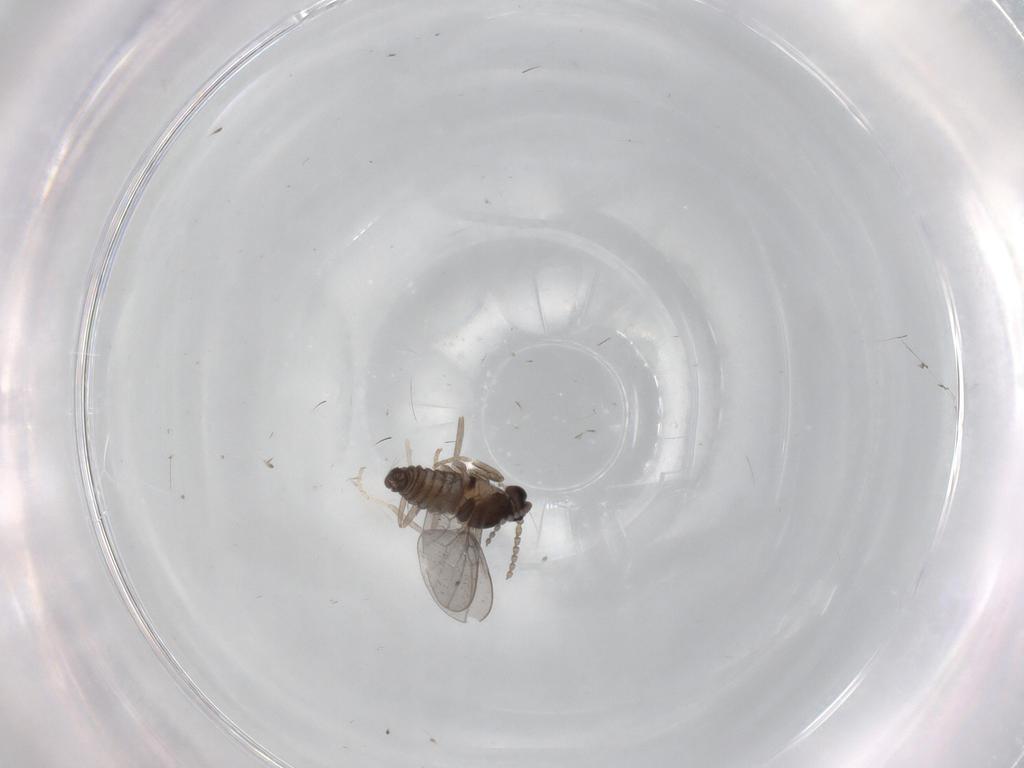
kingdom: Animalia
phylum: Arthropoda
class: Insecta
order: Diptera
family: Cecidomyiidae
